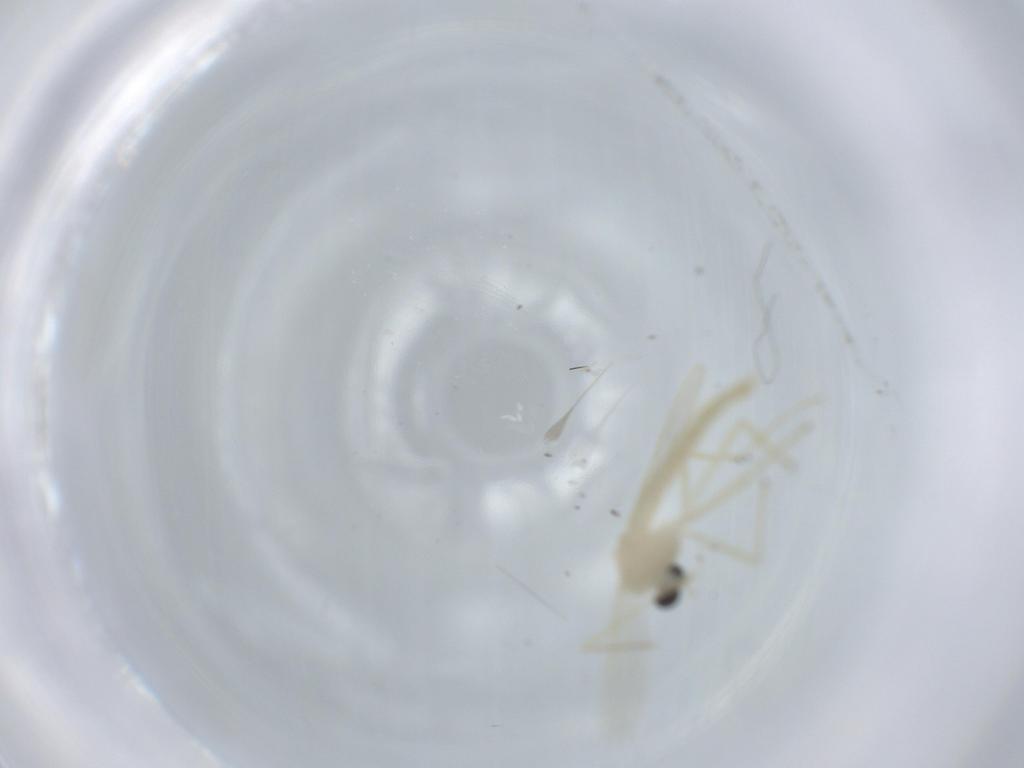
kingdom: Animalia
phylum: Arthropoda
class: Insecta
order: Diptera
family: Chironomidae
